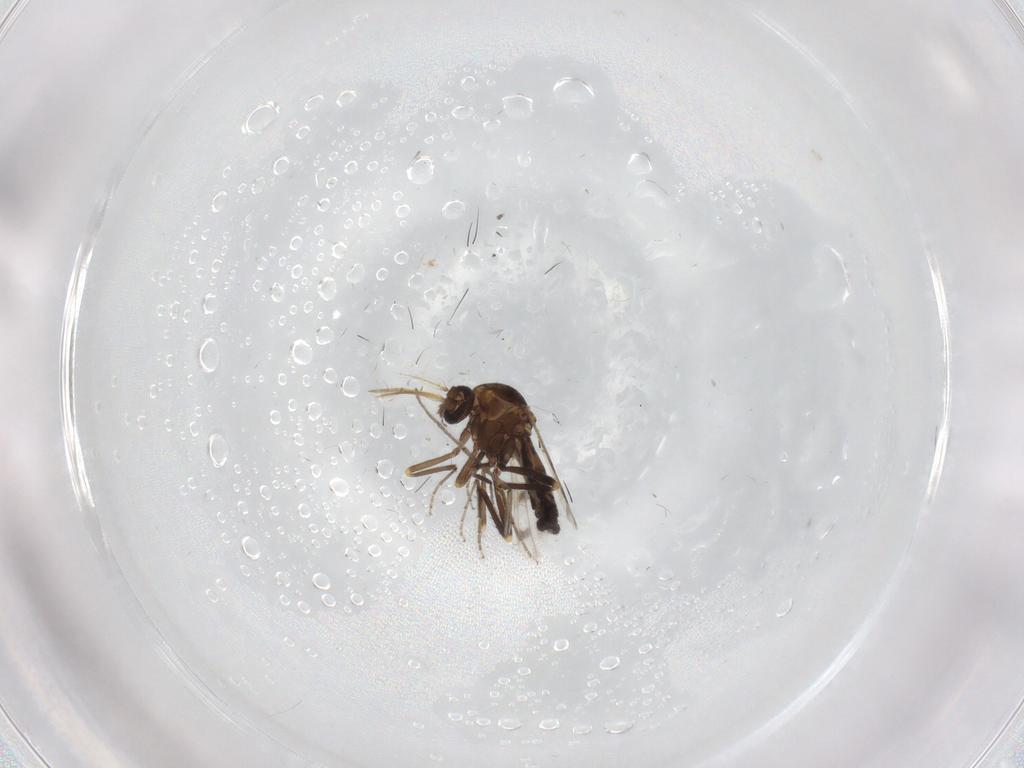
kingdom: Animalia
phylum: Arthropoda
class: Insecta
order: Diptera
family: Ceratopogonidae
